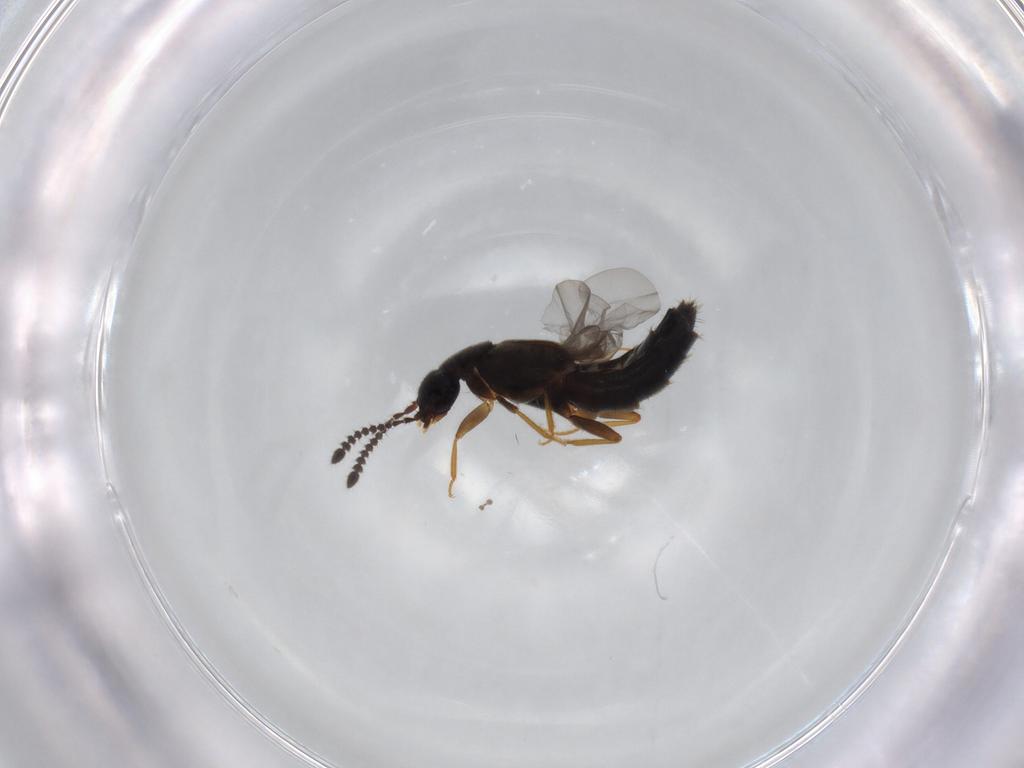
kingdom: Animalia
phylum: Arthropoda
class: Insecta
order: Coleoptera
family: Staphylinidae
